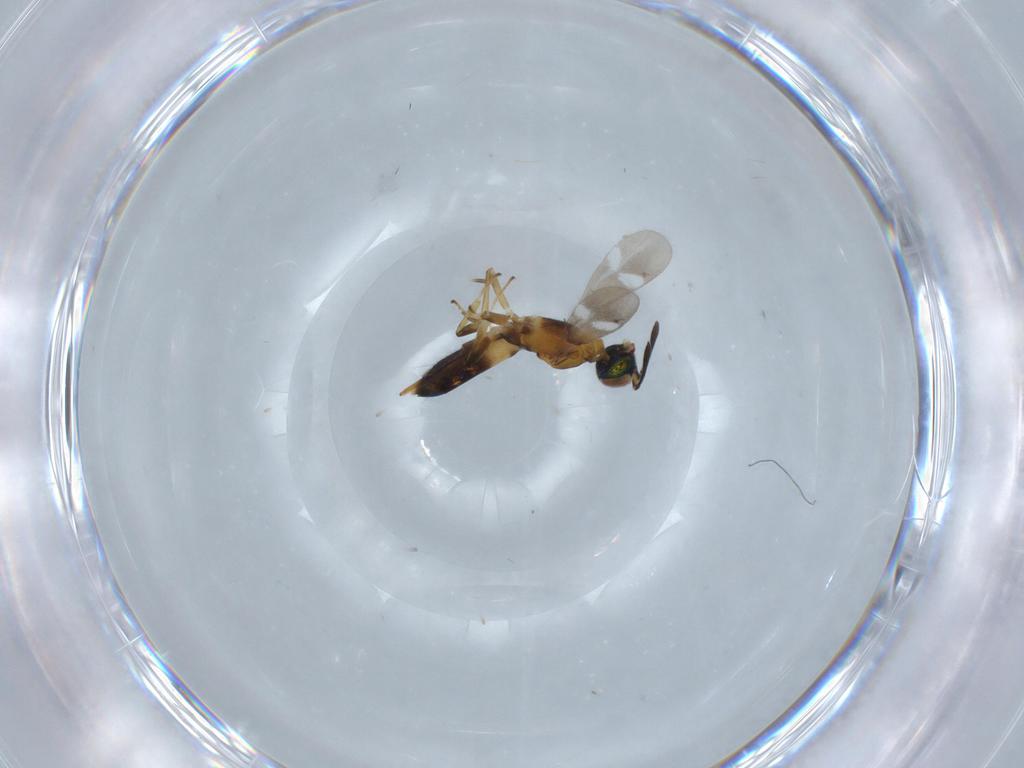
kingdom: Animalia
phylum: Arthropoda
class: Insecta
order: Hymenoptera
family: Eupelmidae
